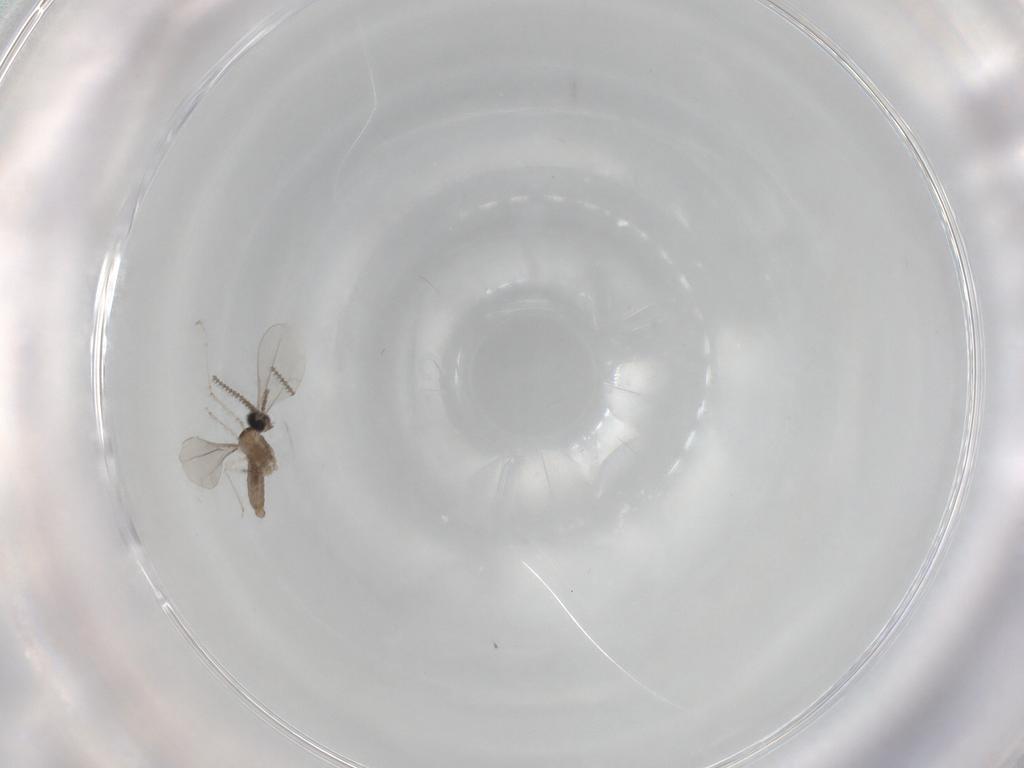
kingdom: Animalia
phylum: Arthropoda
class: Insecta
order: Diptera
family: Cecidomyiidae
